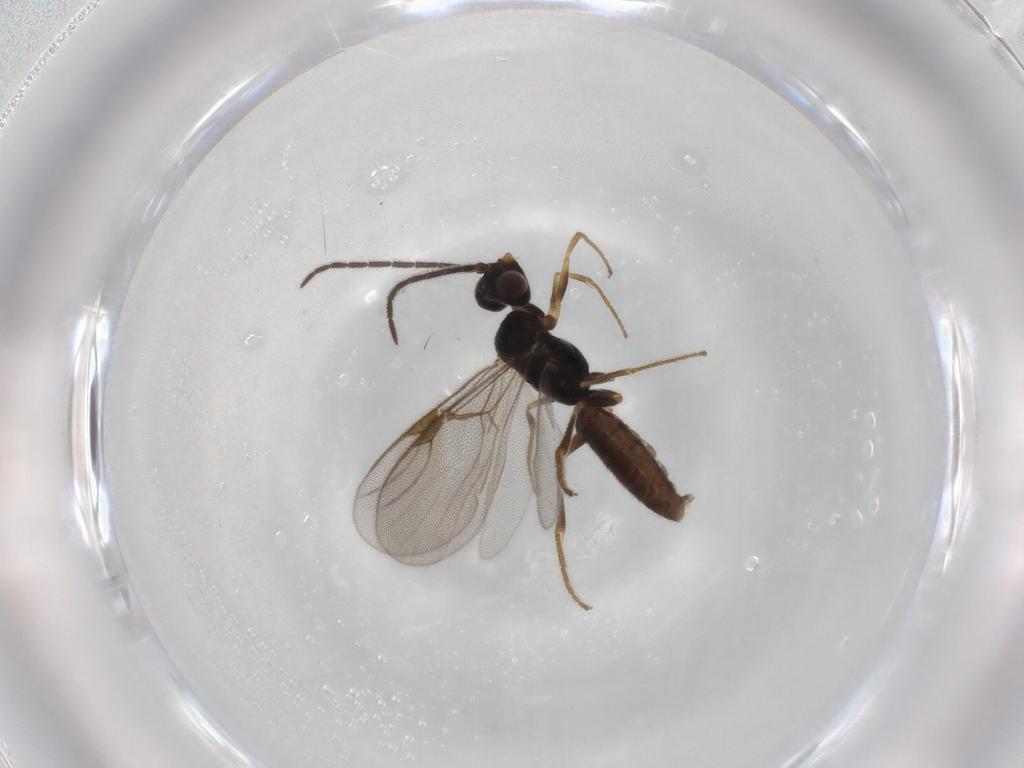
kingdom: Animalia
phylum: Arthropoda
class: Insecta
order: Hymenoptera
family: Dryinidae
